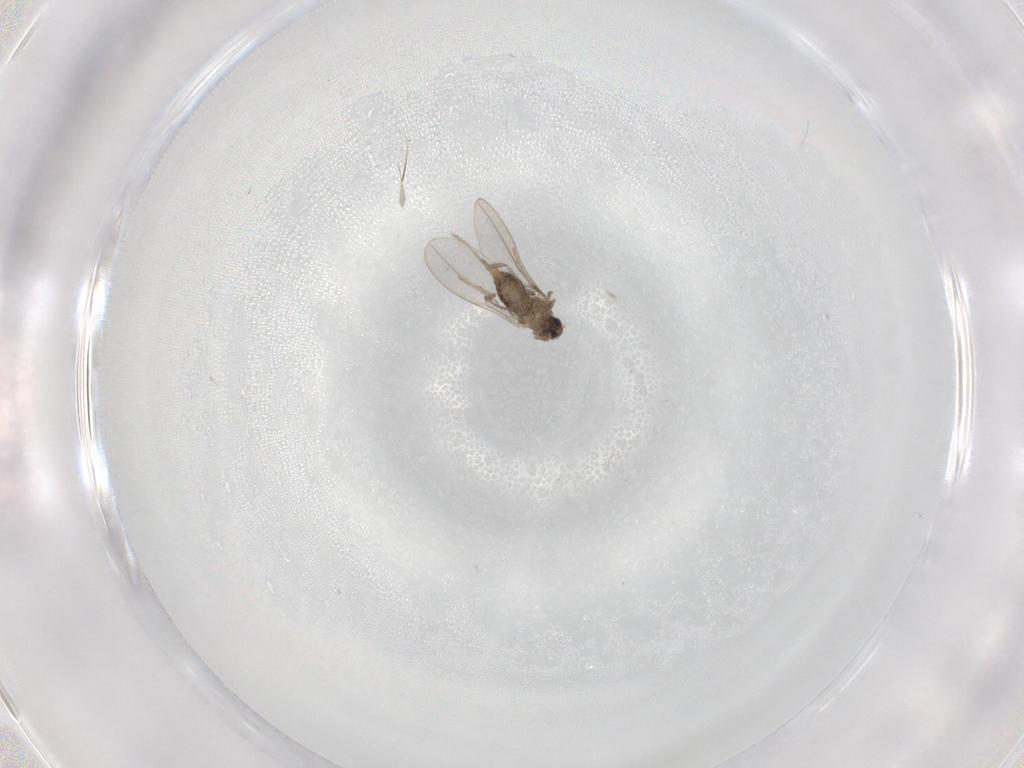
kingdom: Animalia
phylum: Arthropoda
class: Insecta
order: Diptera
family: Cecidomyiidae
